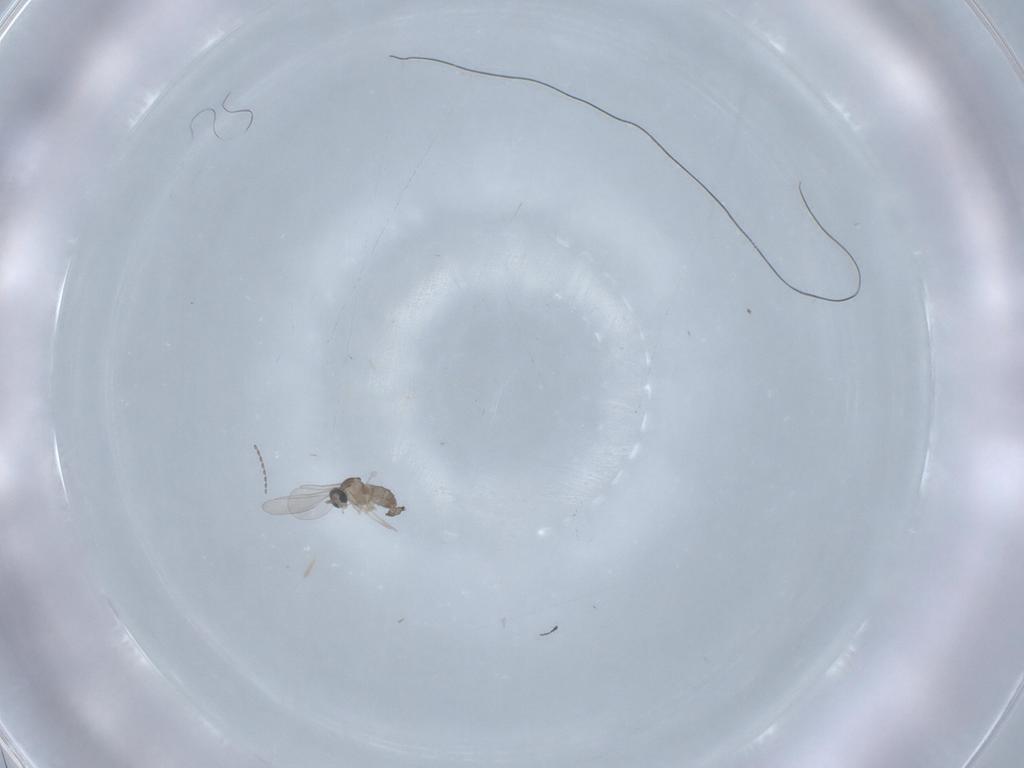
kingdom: Animalia
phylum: Arthropoda
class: Insecta
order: Diptera
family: Cecidomyiidae
